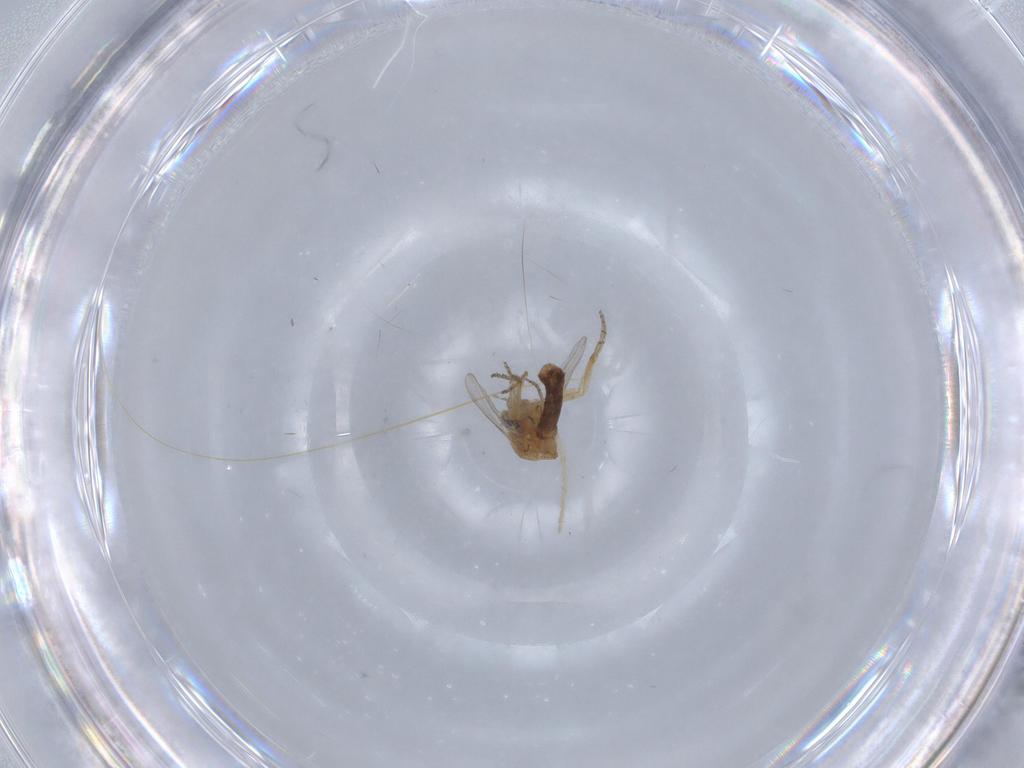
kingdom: Animalia
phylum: Arthropoda
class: Insecta
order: Diptera
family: Ceratopogonidae
